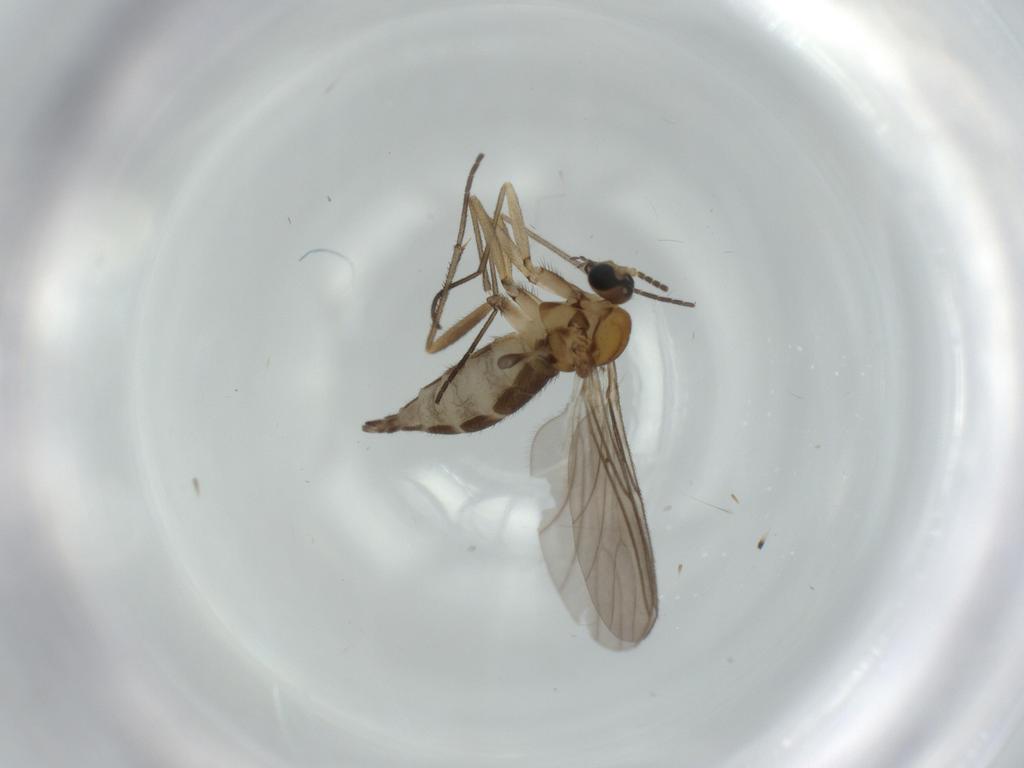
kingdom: Animalia
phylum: Arthropoda
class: Insecta
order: Diptera
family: Sciaridae
